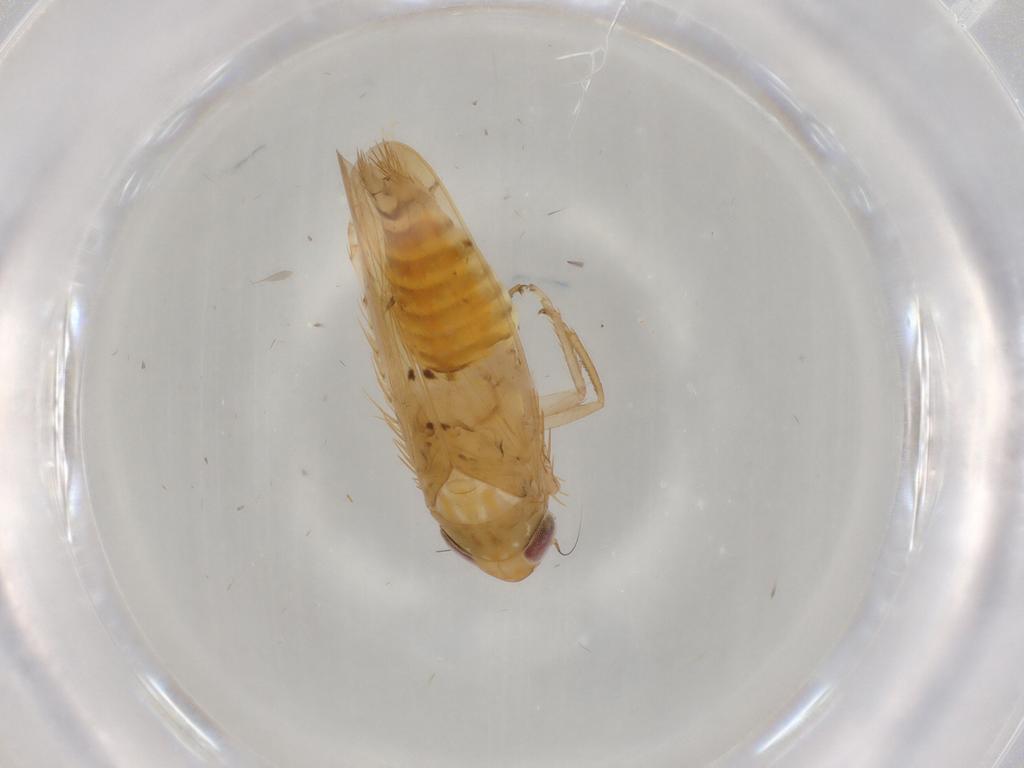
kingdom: Animalia
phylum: Arthropoda
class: Insecta
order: Hemiptera
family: Cicadellidae
